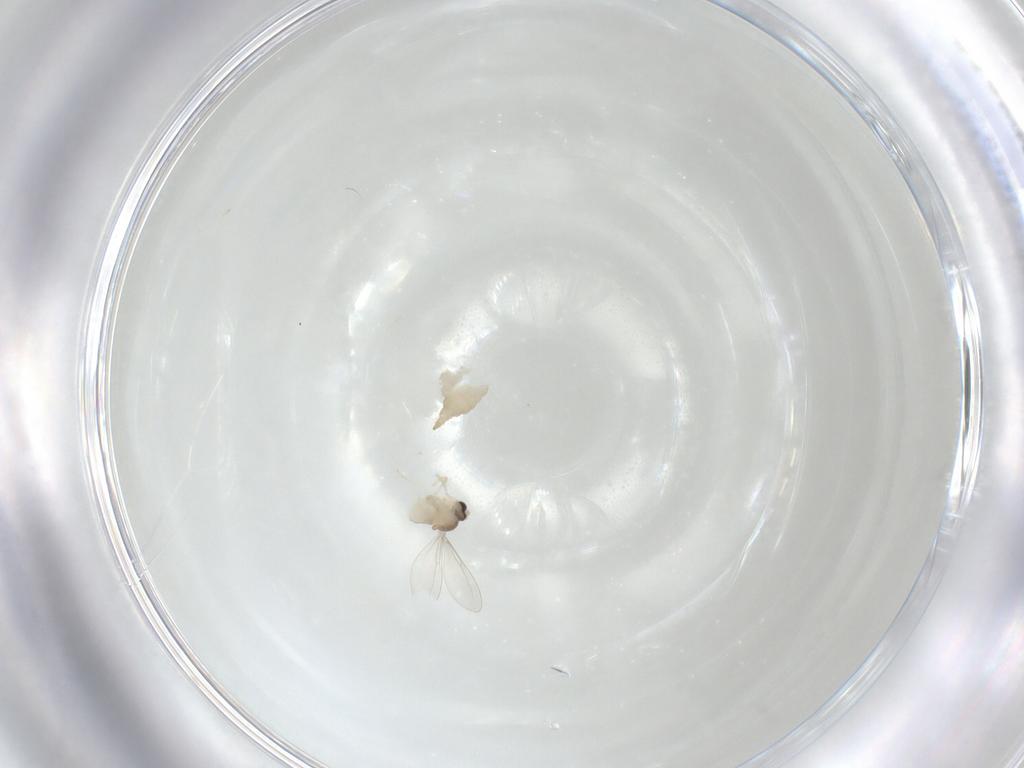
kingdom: Animalia
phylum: Arthropoda
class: Insecta
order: Diptera
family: Cecidomyiidae
